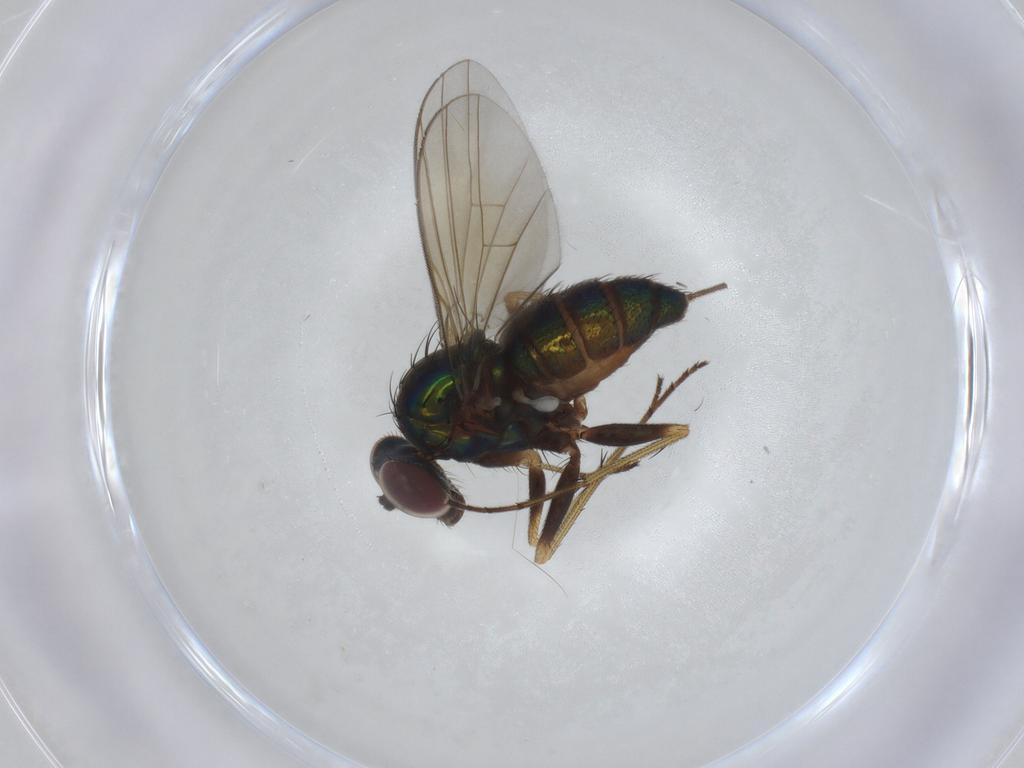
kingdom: Animalia
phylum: Arthropoda
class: Insecta
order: Diptera
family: Dolichopodidae
